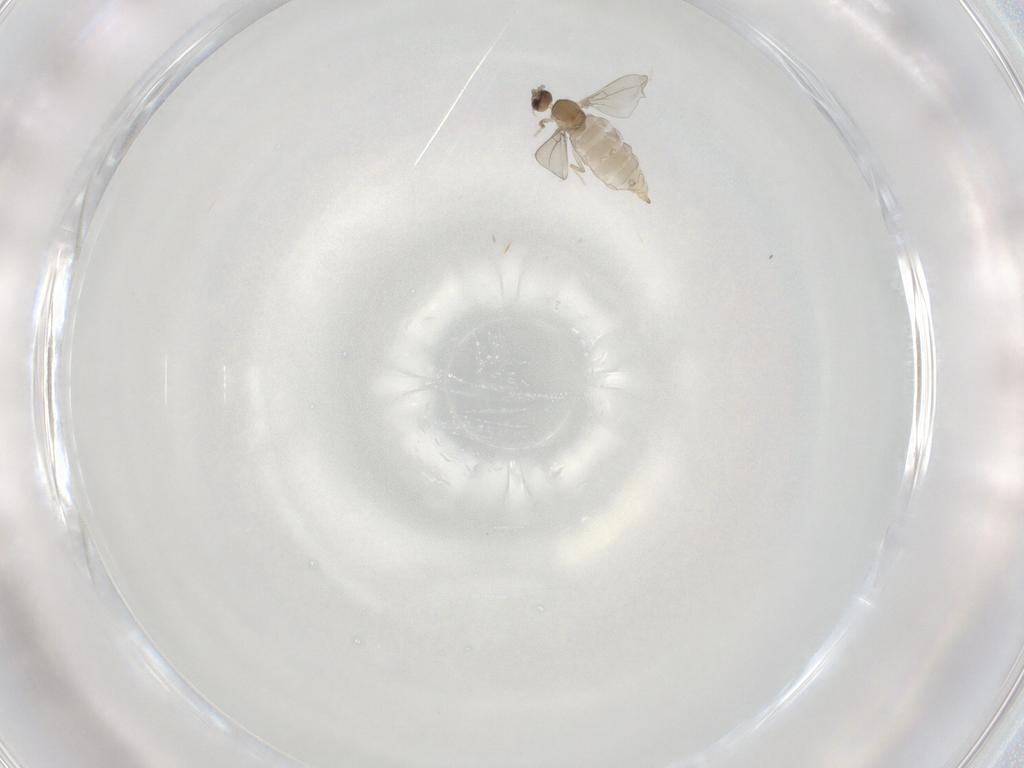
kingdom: Animalia
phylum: Arthropoda
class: Insecta
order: Diptera
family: Cecidomyiidae
